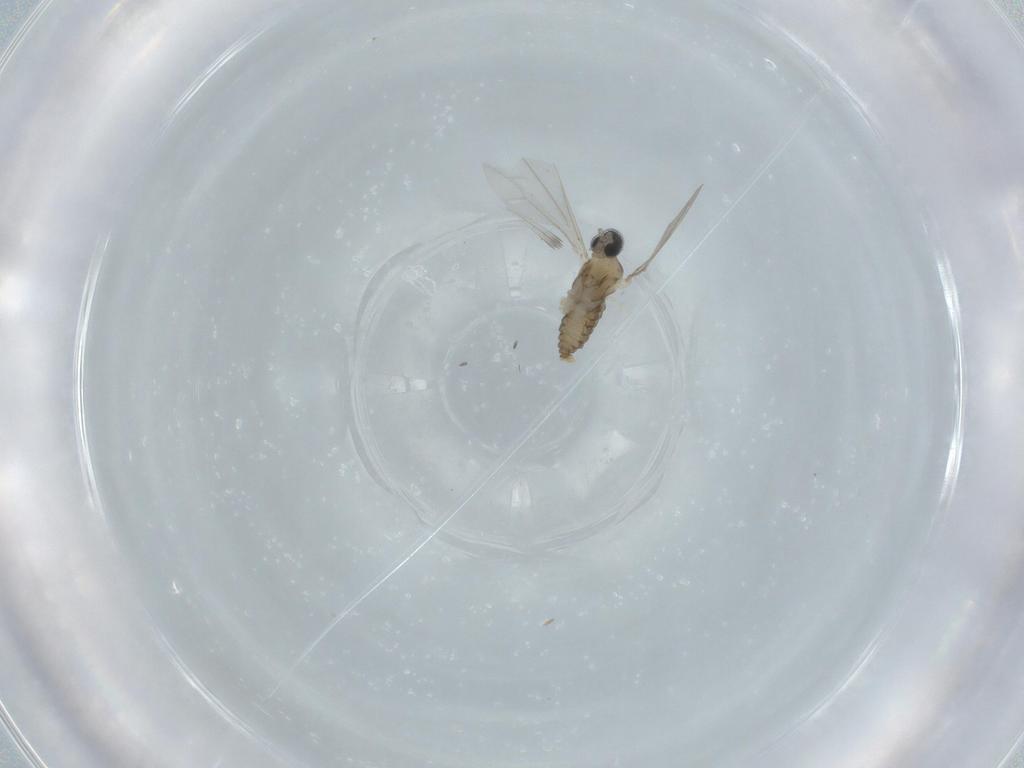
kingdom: Animalia
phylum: Arthropoda
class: Insecta
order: Diptera
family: Cecidomyiidae
